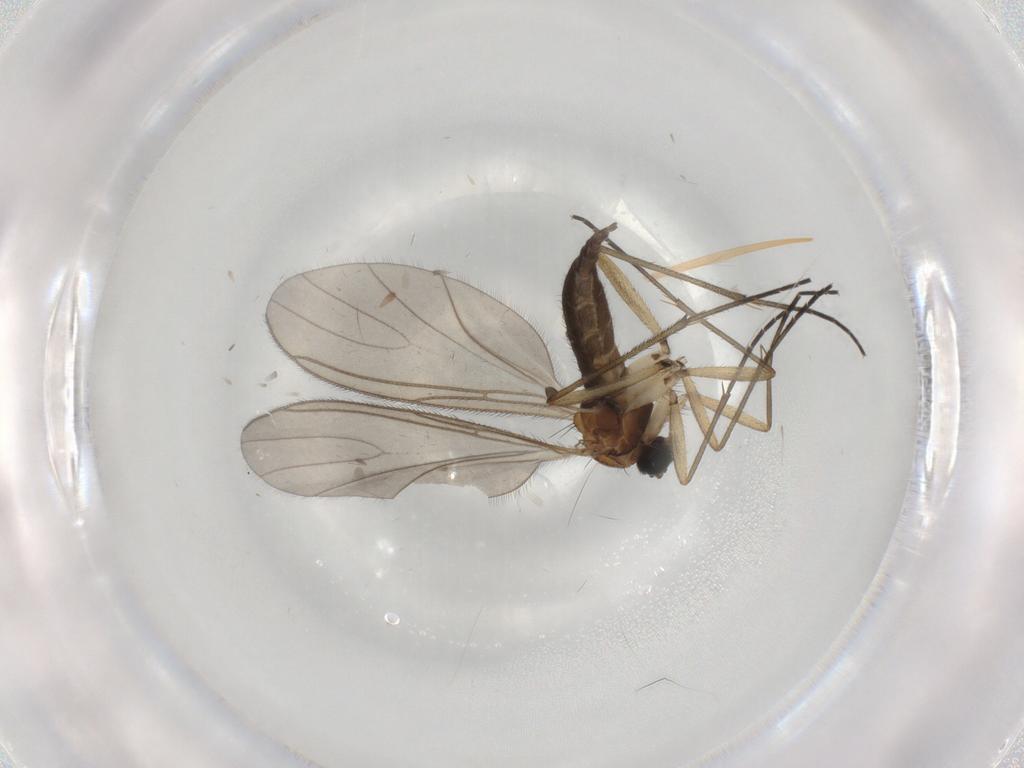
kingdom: Animalia
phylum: Arthropoda
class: Insecta
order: Diptera
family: Sciaridae
